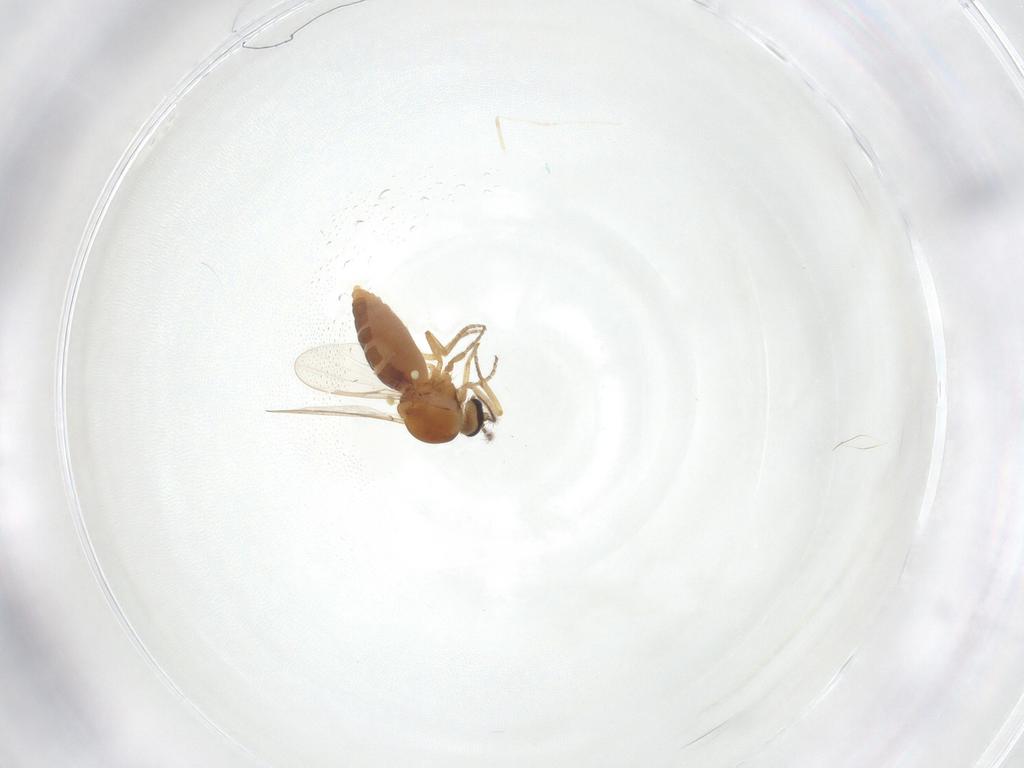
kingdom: Animalia
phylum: Arthropoda
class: Insecta
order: Diptera
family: Ceratopogonidae
